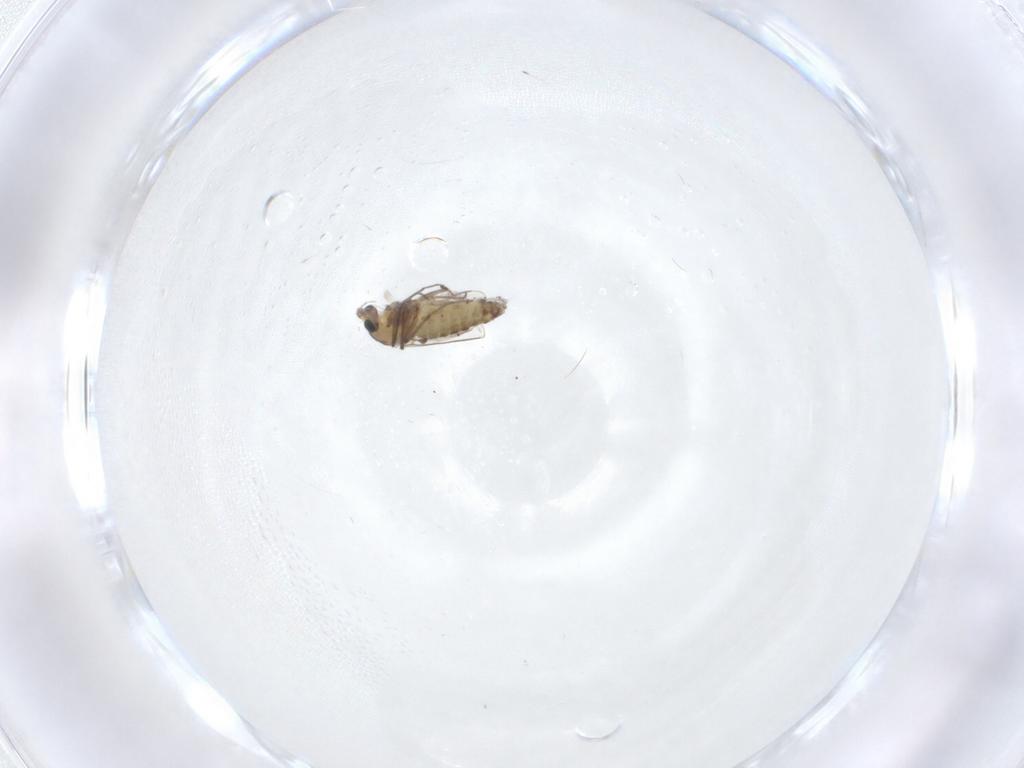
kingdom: Animalia
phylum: Arthropoda
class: Insecta
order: Diptera
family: Chironomidae
